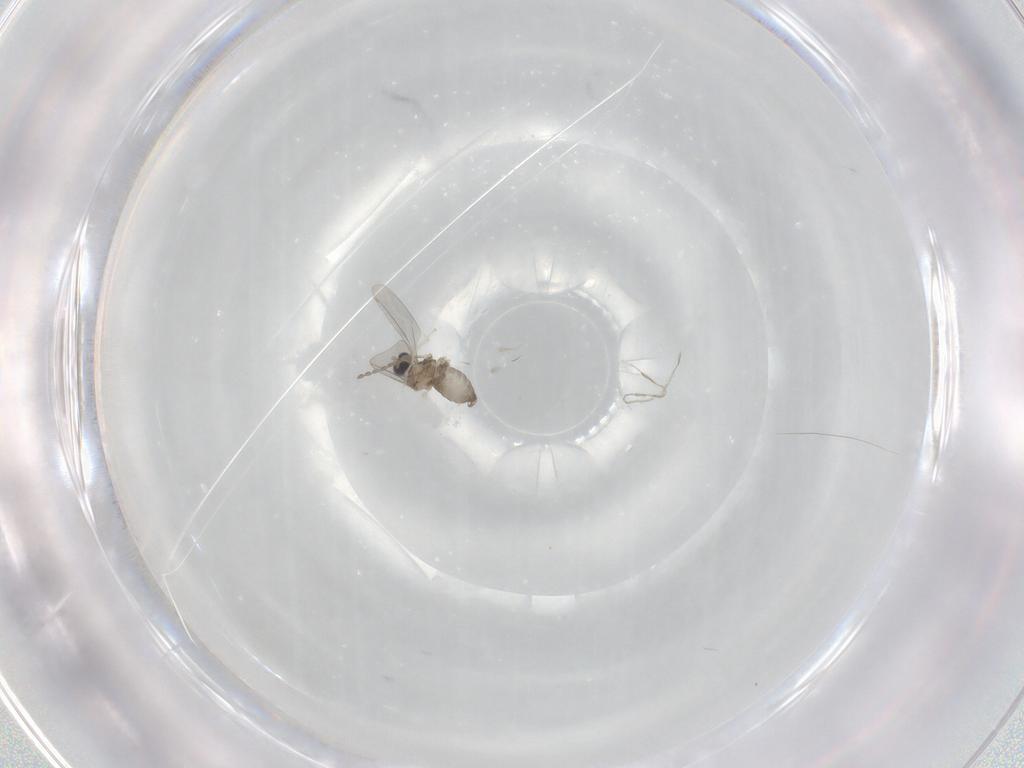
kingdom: Animalia
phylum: Arthropoda
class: Insecta
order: Diptera
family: Cecidomyiidae
